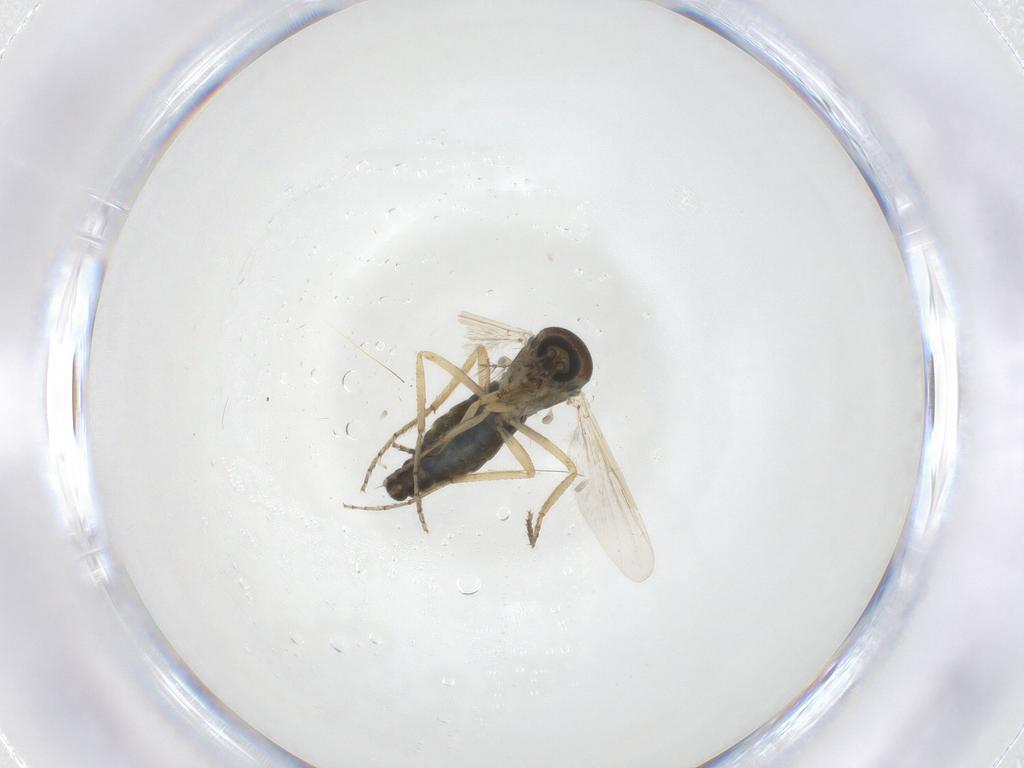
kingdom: Animalia
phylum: Arthropoda
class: Insecta
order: Diptera
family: Ceratopogonidae
